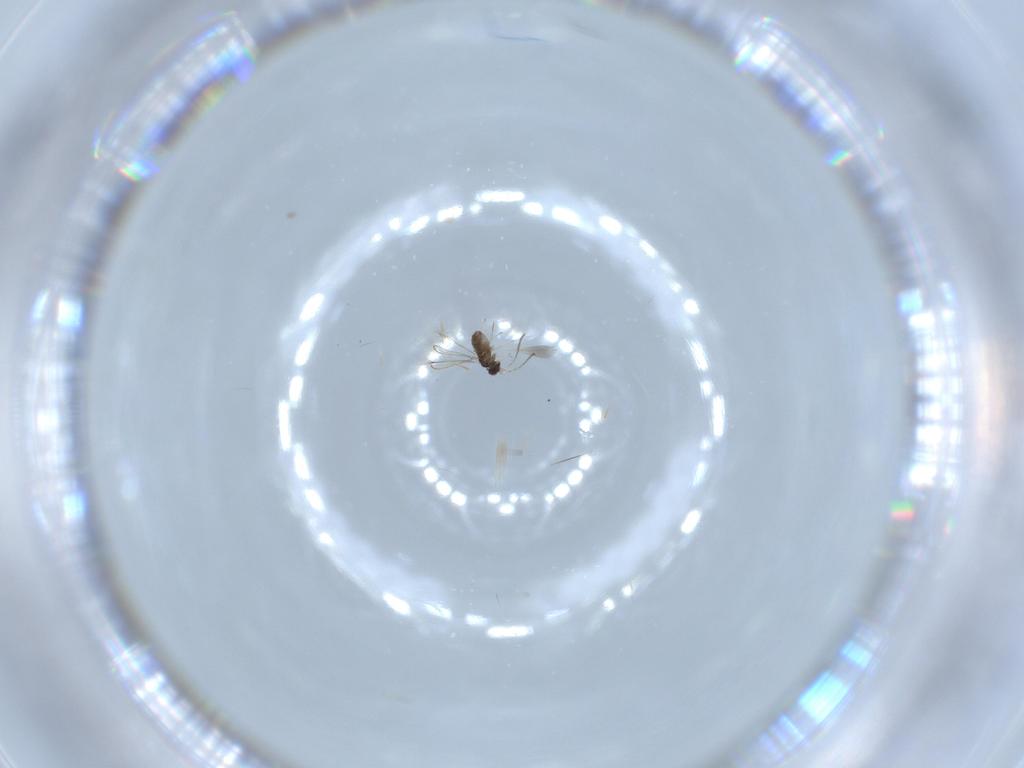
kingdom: Animalia
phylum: Arthropoda
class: Insecta
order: Hymenoptera
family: Platygastridae
